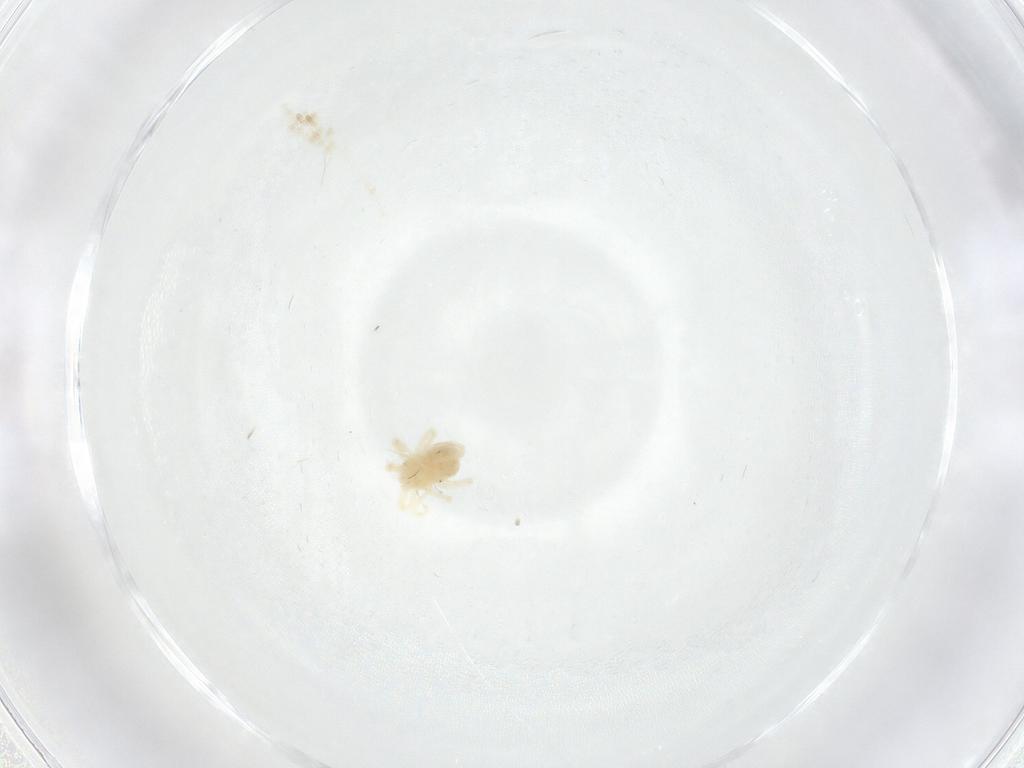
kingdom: Animalia
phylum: Arthropoda
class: Arachnida
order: Trombidiformes
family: Anystidae
